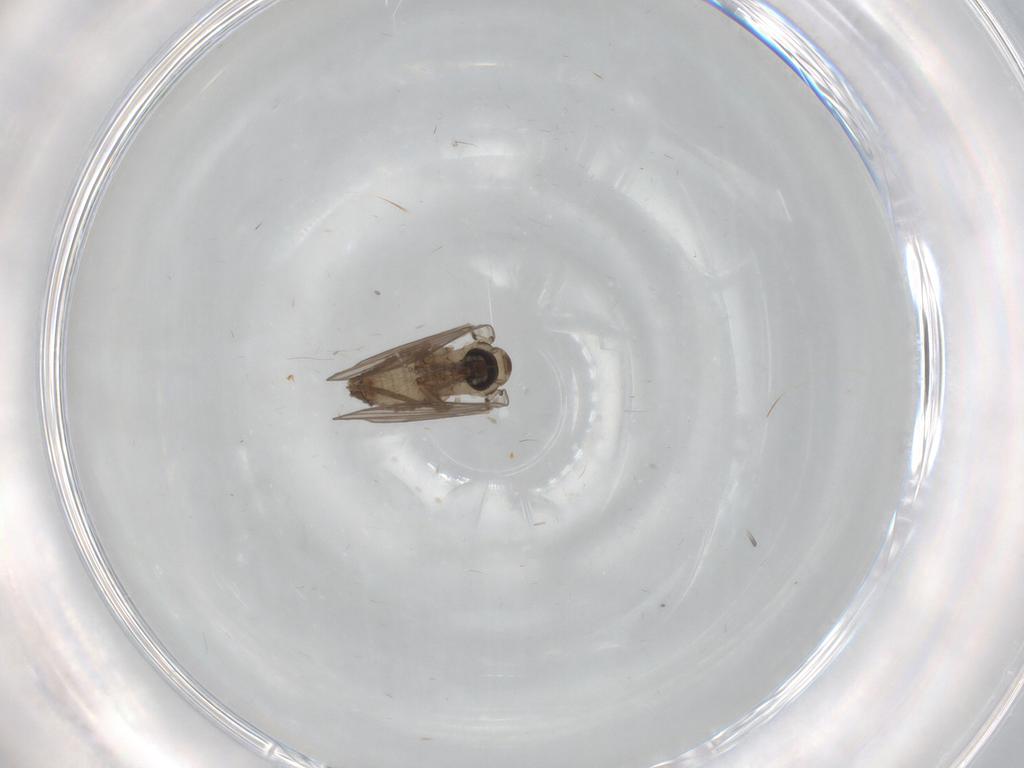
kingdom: Animalia
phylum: Arthropoda
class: Insecta
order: Diptera
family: Psychodidae
